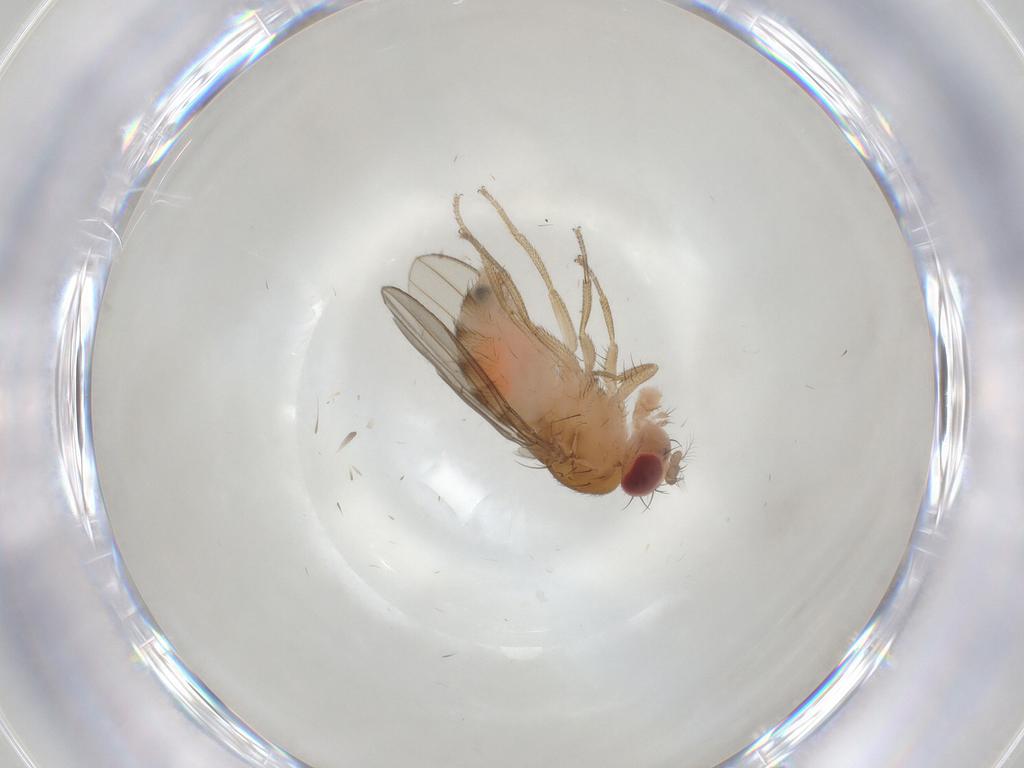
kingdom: Animalia
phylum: Arthropoda
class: Insecta
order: Diptera
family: Drosophilidae
